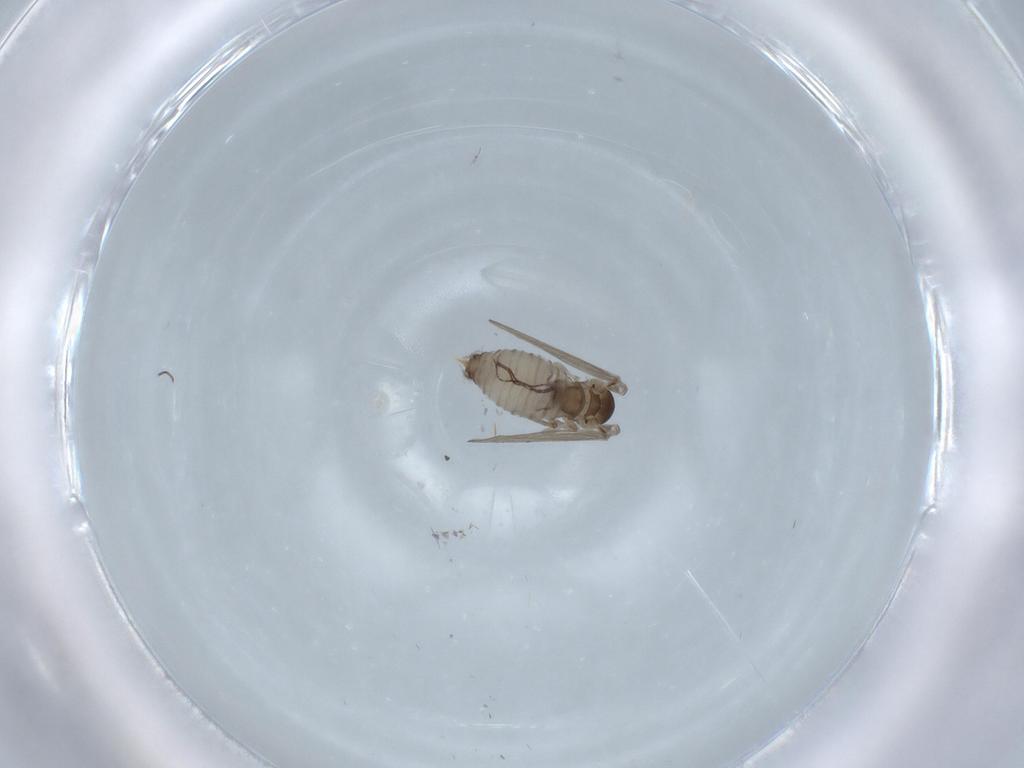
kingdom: Animalia
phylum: Arthropoda
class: Insecta
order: Diptera
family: Psychodidae
